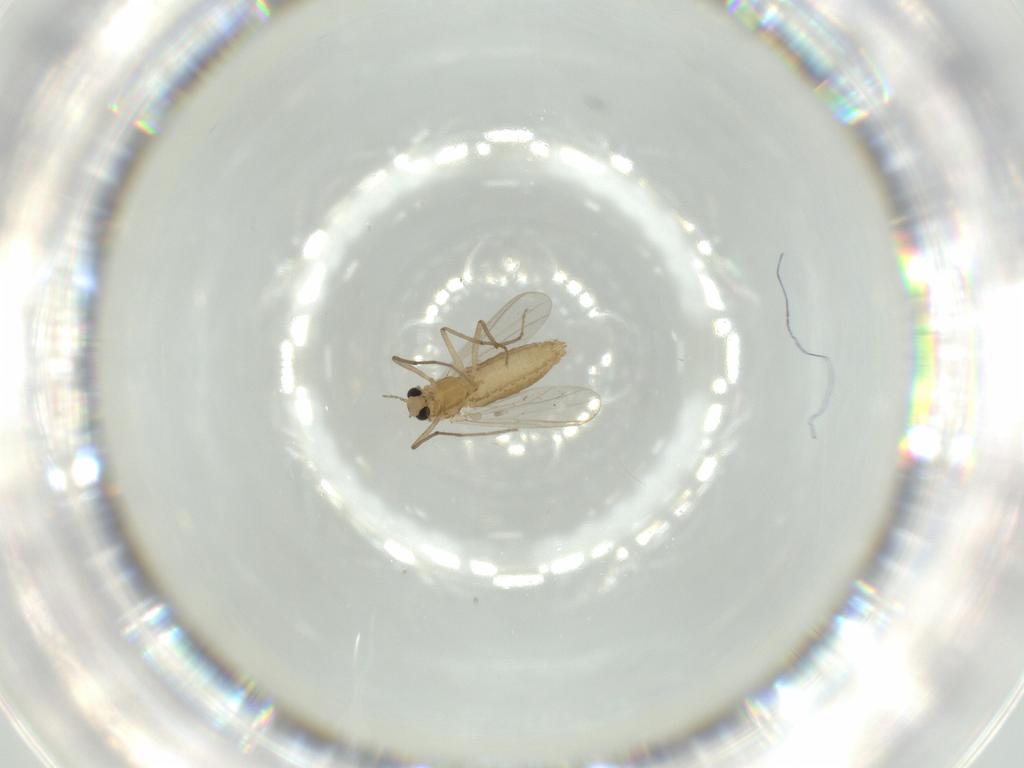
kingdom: Animalia
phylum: Arthropoda
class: Insecta
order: Diptera
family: Chironomidae
